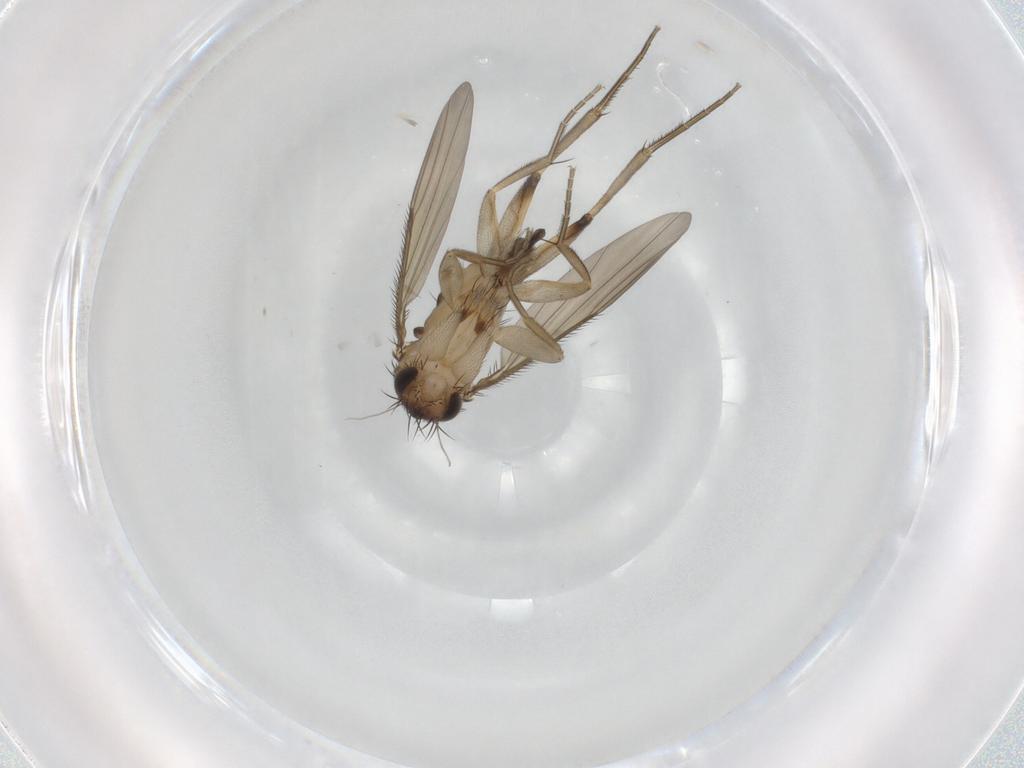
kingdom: Animalia
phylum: Arthropoda
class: Insecta
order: Diptera
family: Phoridae
